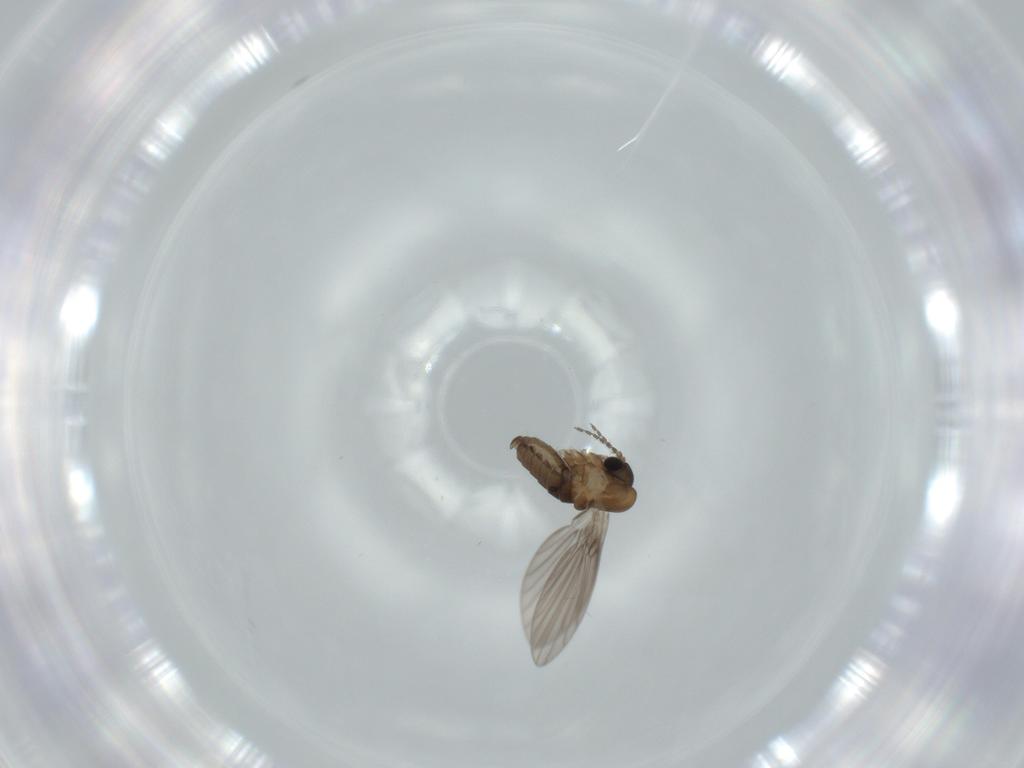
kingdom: Animalia
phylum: Arthropoda
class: Insecta
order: Diptera
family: Psychodidae
